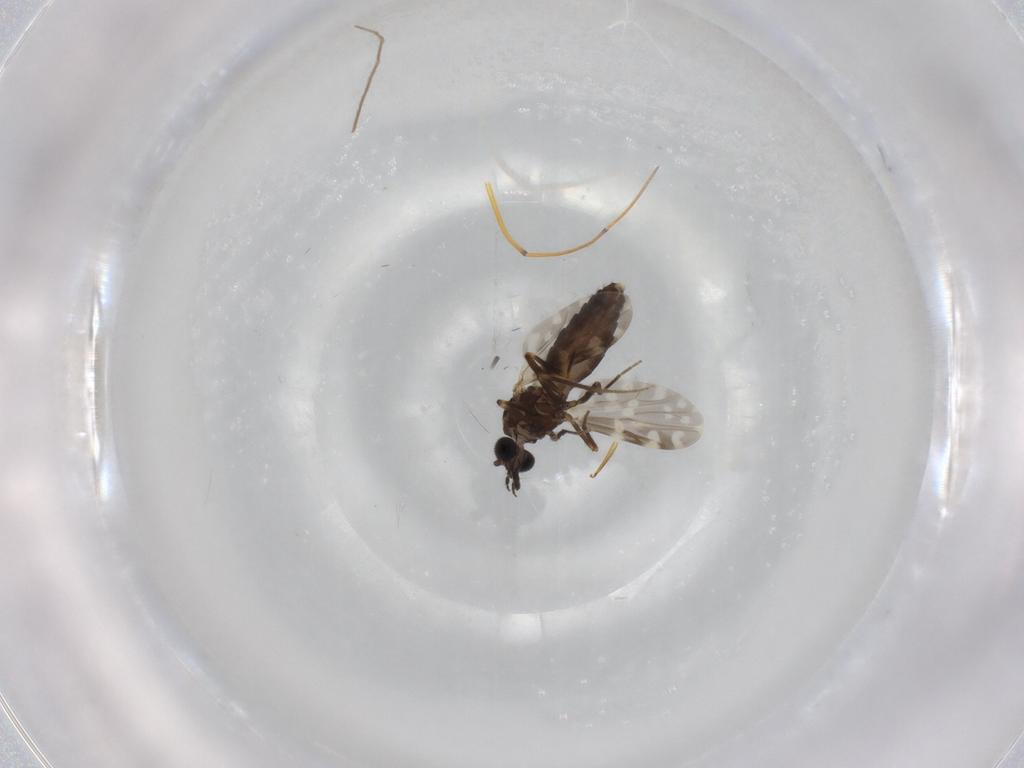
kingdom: Animalia
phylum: Arthropoda
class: Insecta
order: Diptera
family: Ceratopogonidae
